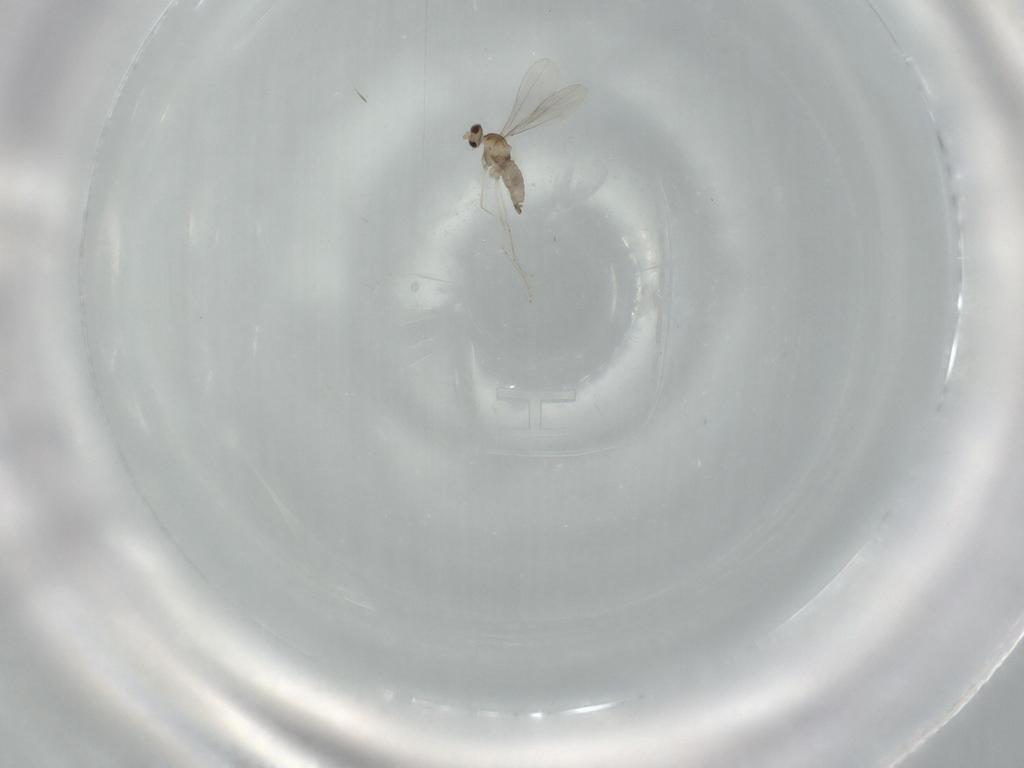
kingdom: Animalia
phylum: Arthropoda
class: Insecta
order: Diptera
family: Cecidomyiidae
